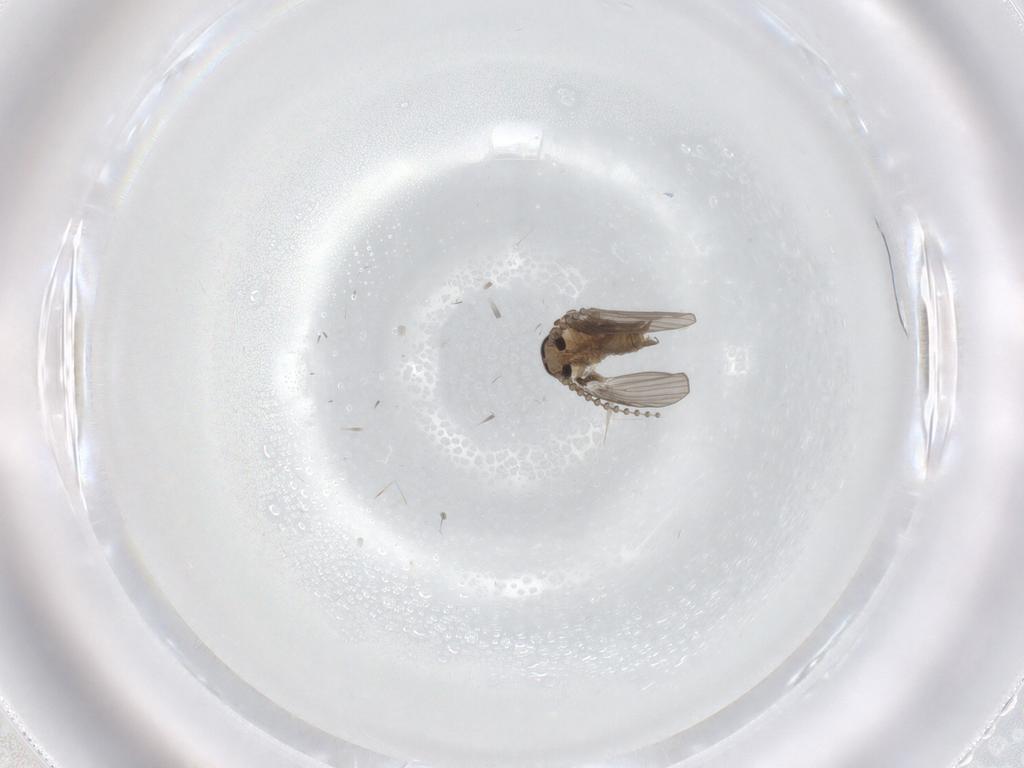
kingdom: Animalia
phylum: Arthropoda
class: Insecta
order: Diptera
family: Psychodidae
